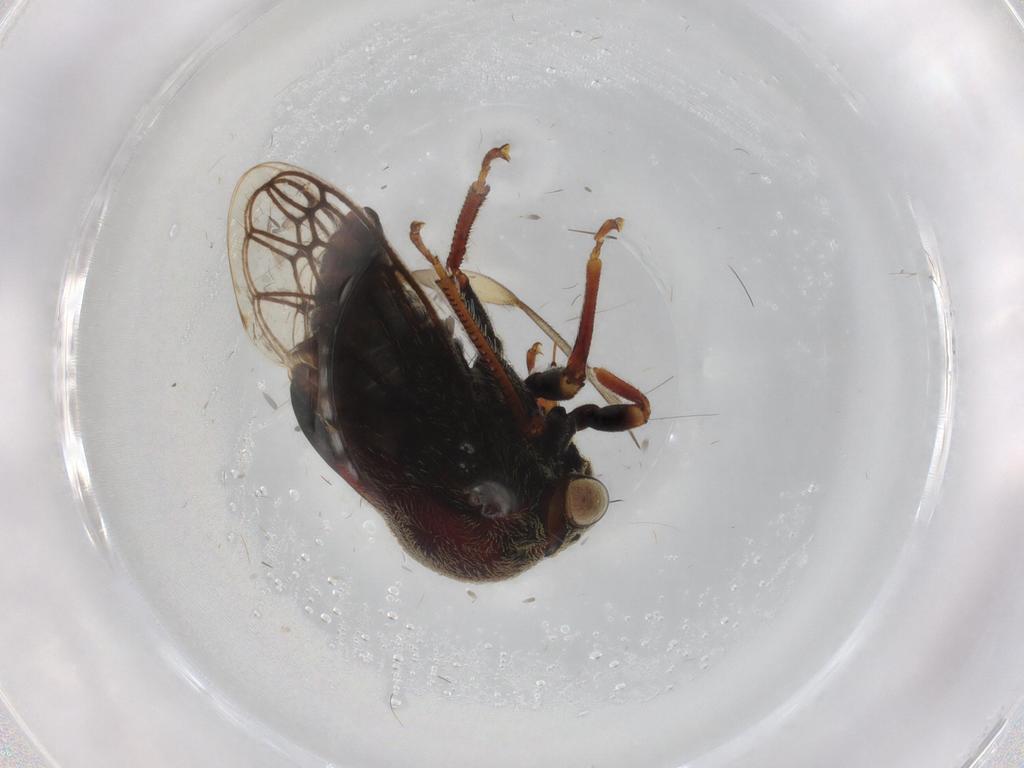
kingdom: Animalia
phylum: Arthropoda
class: Insecta
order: Hemiptera
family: Membracidae
